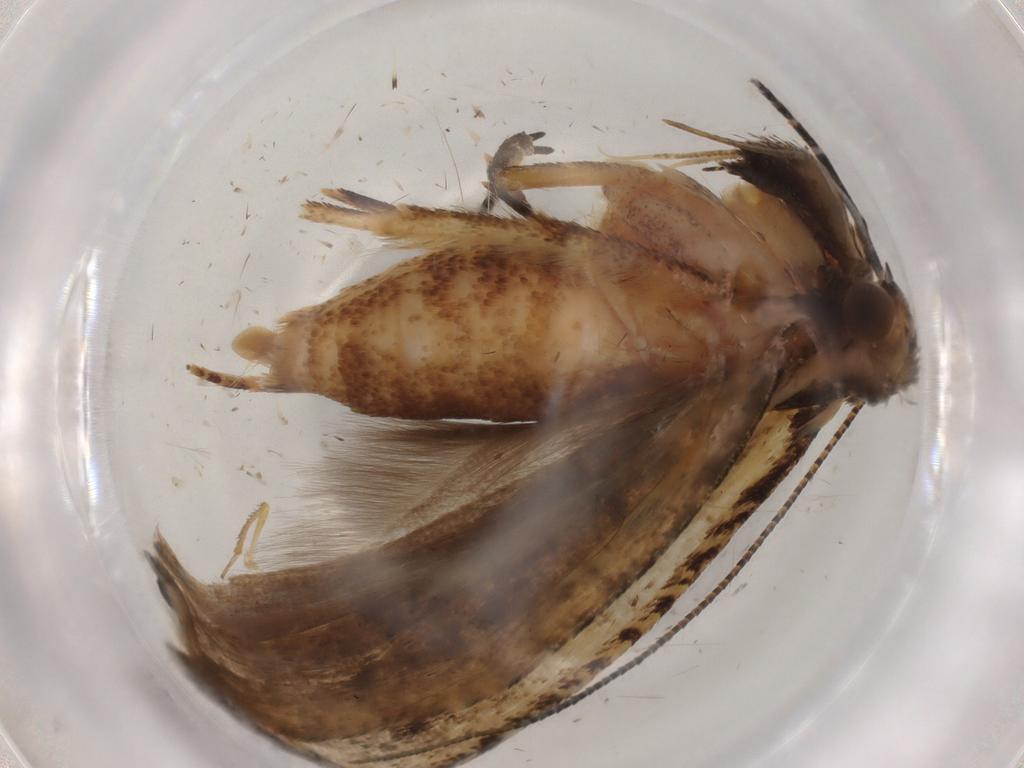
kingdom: Animalia
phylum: Arthropoda
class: Insecta
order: Lepidoptera
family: Gelechiidae
